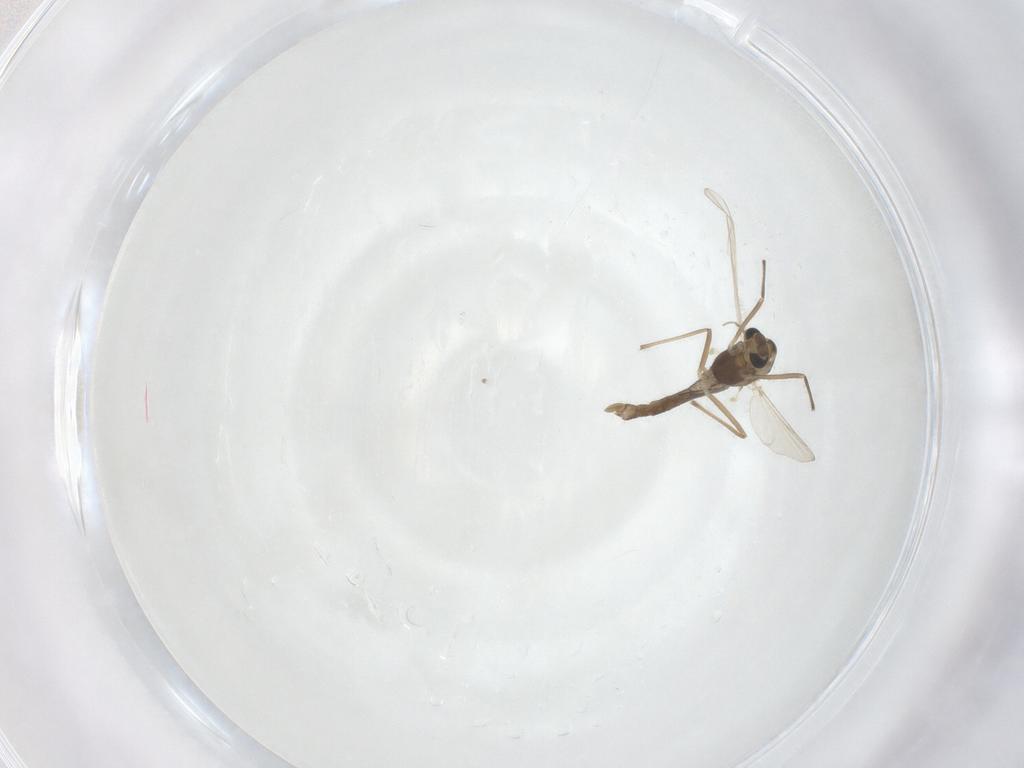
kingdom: Animalia
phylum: Arthropoda
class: Insecta
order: Diptera
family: Chironomidae
